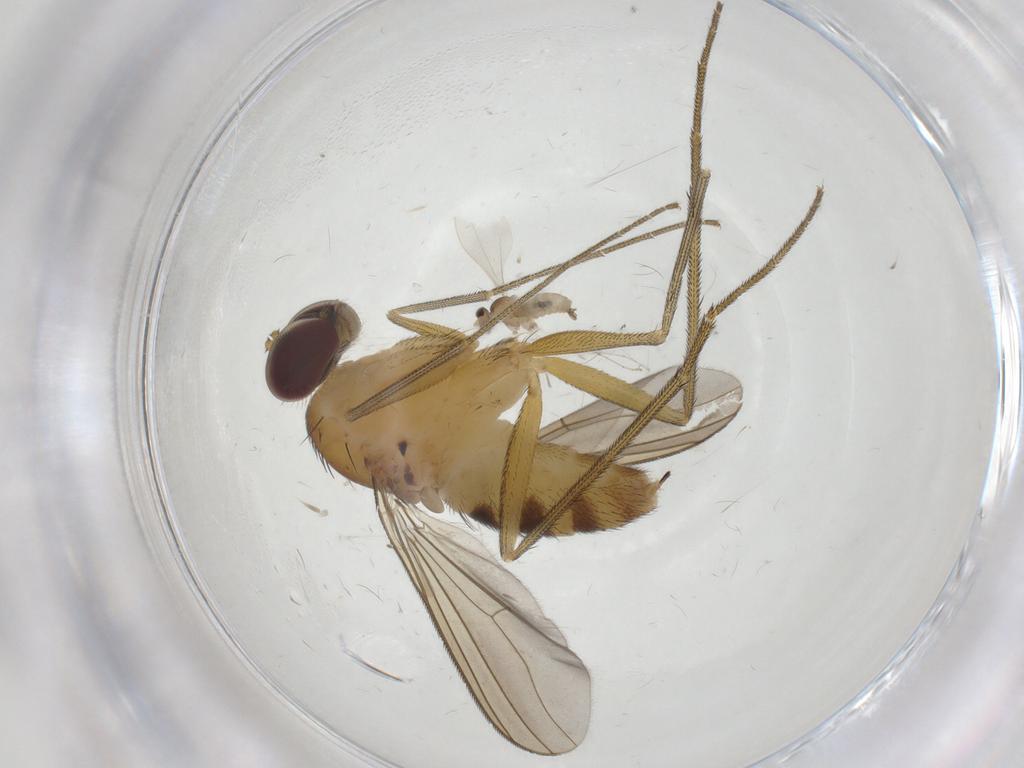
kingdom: Animalia
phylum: Arthropoda
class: Insecta
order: Diptera
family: Dolichopodidae
